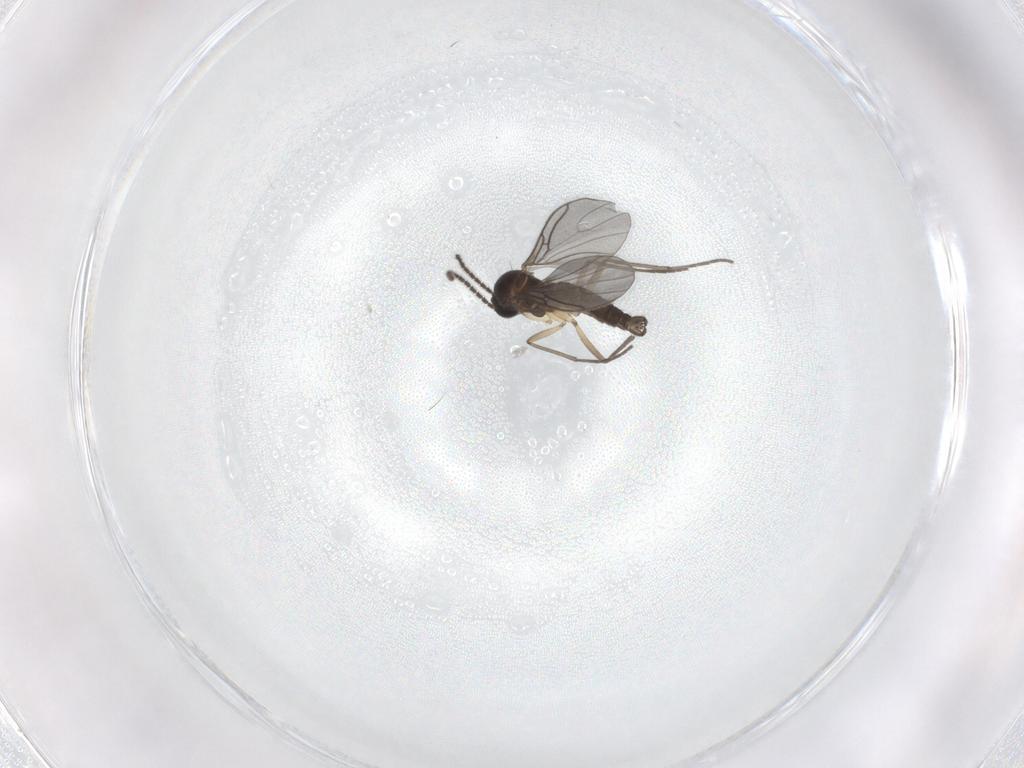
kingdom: Animalia
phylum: Arthropoda
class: Insecta
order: Diptera
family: Sciaridae
